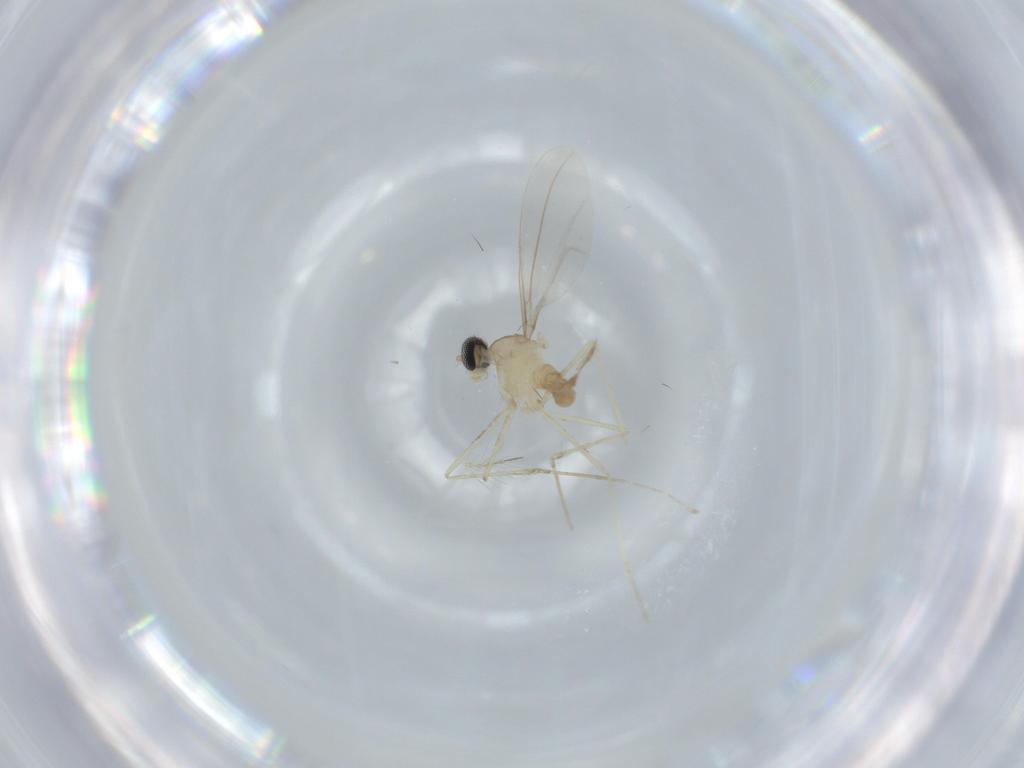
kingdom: Animalia
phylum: Arthropoda
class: Insecta
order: Diptera
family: Cecidomyiidae
